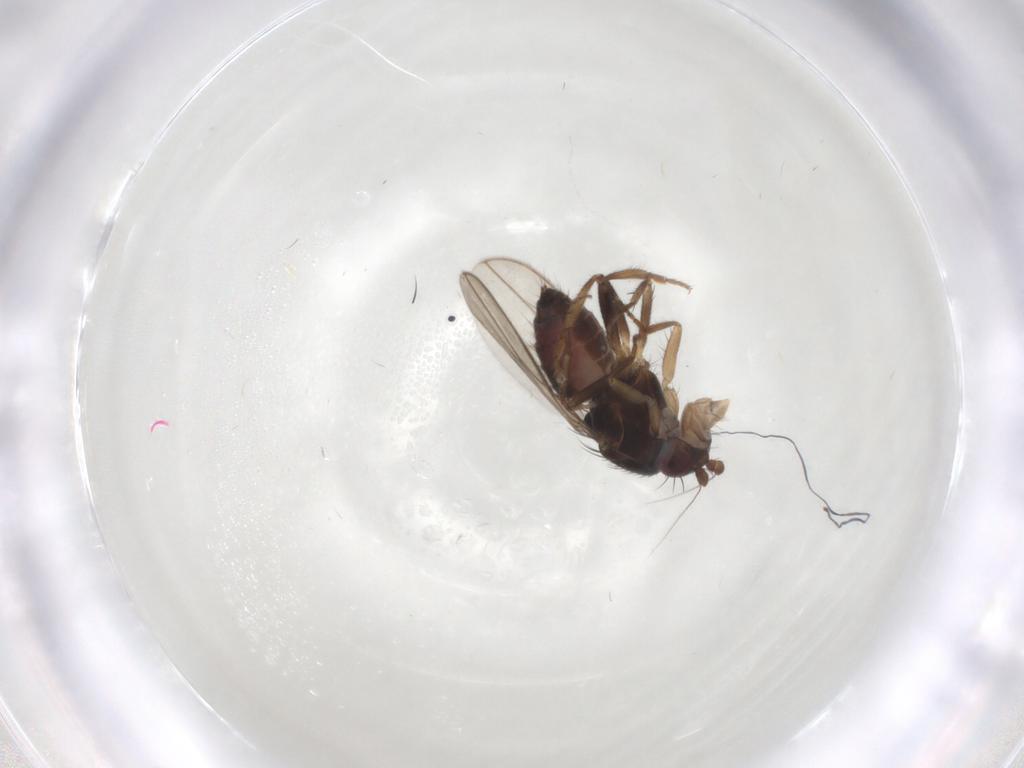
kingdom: Animalia
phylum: Arthropoda
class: Insecta
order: Diptera
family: Sphaeroceridae
